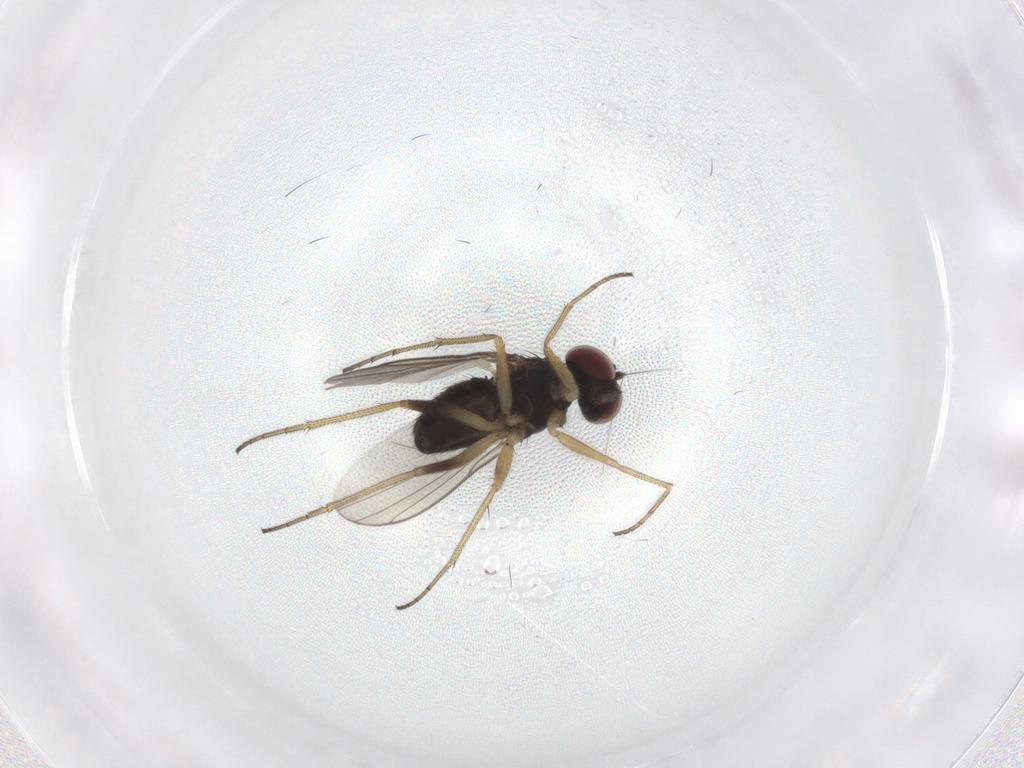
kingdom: Animalia
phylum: Arthropoda
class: Insecta
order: Diptera
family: Dolichopodidae
